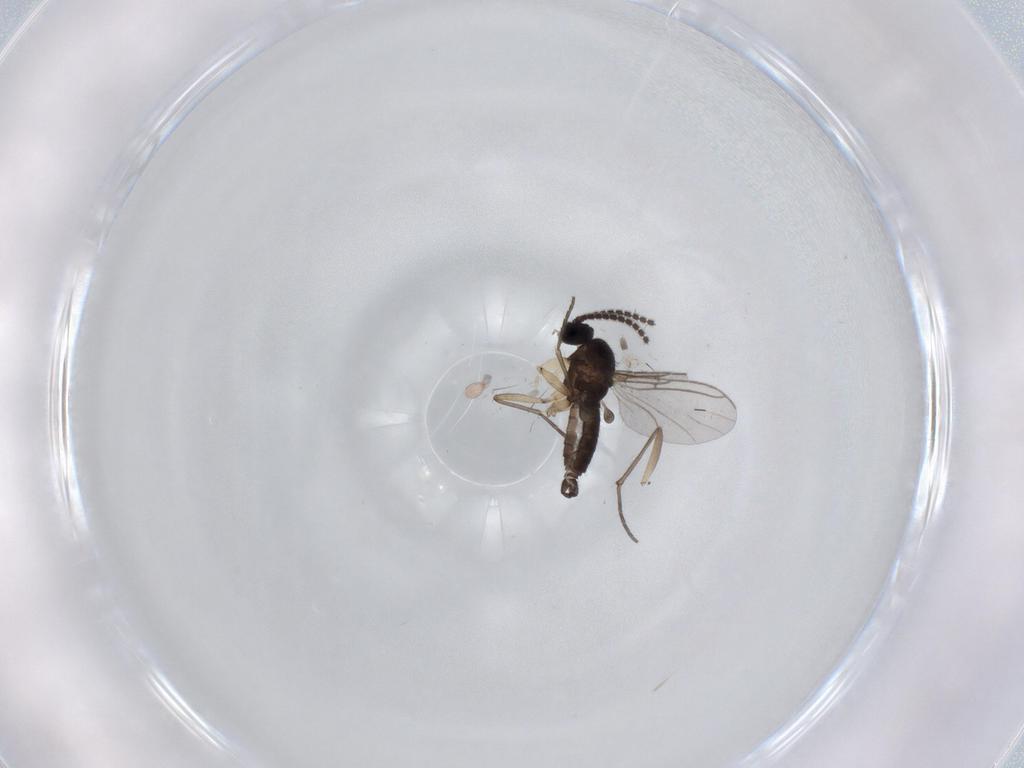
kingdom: Animalia
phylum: Arthropoda
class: Insecta
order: Diptera
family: Sciaridae
